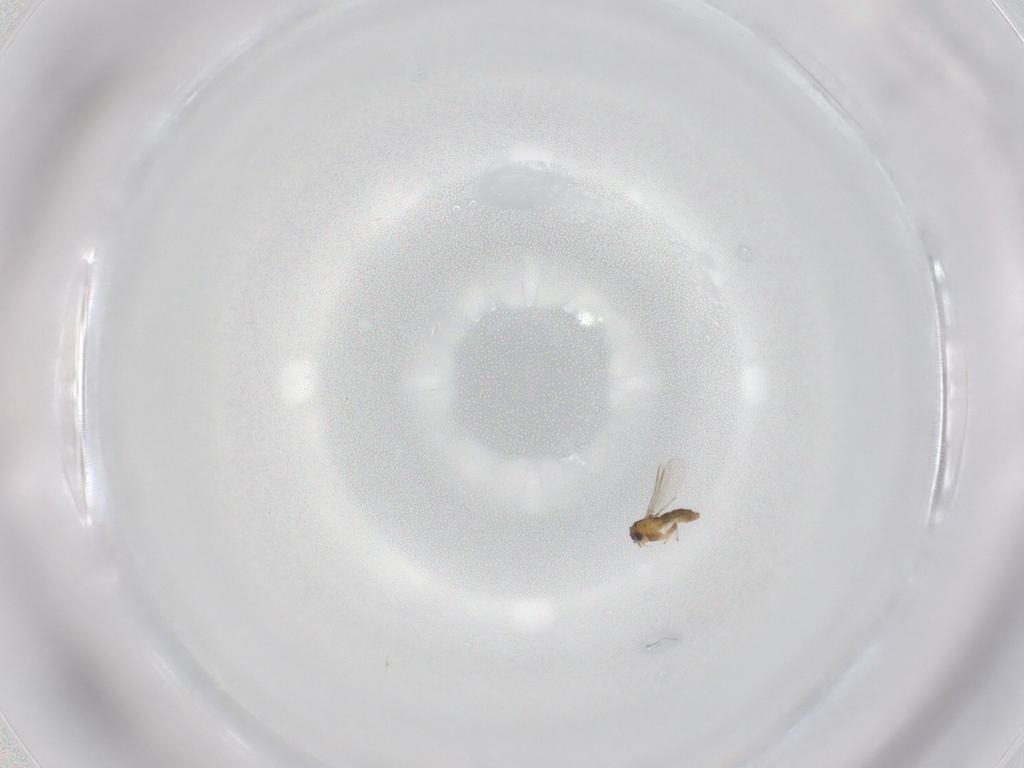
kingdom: Animalia
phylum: Arthropoda
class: Insecta
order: Diptera
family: Chironomidae
